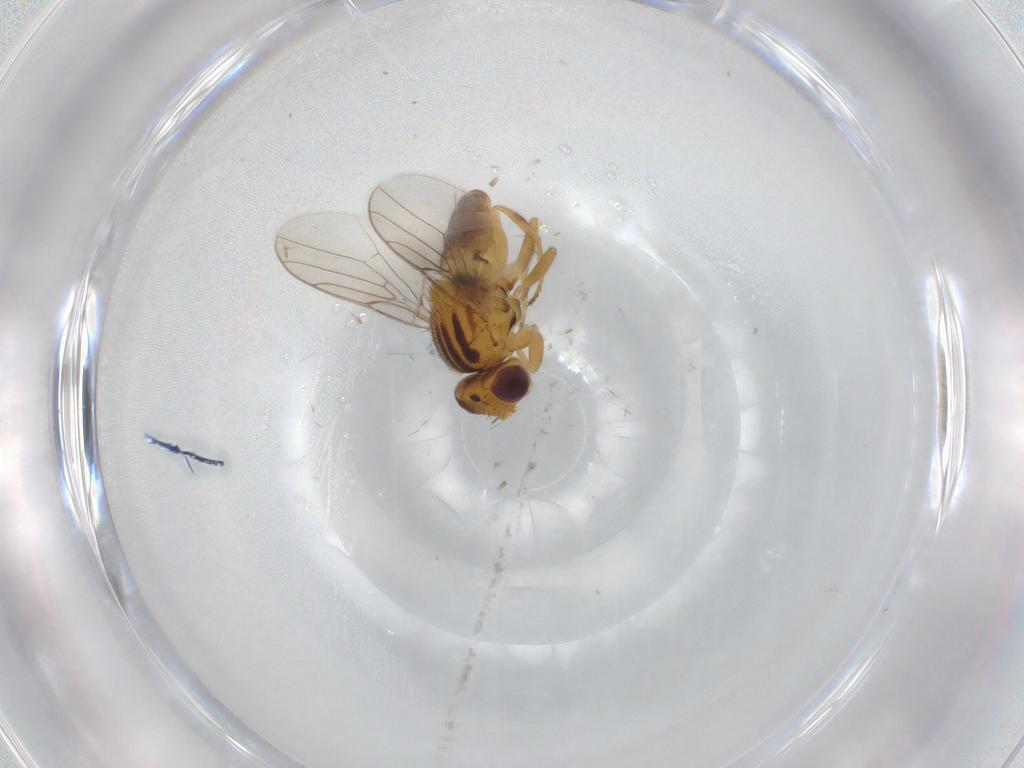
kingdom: Animalia
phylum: Arthropoda
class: Insecta
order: Diptera
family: Chloropidae
